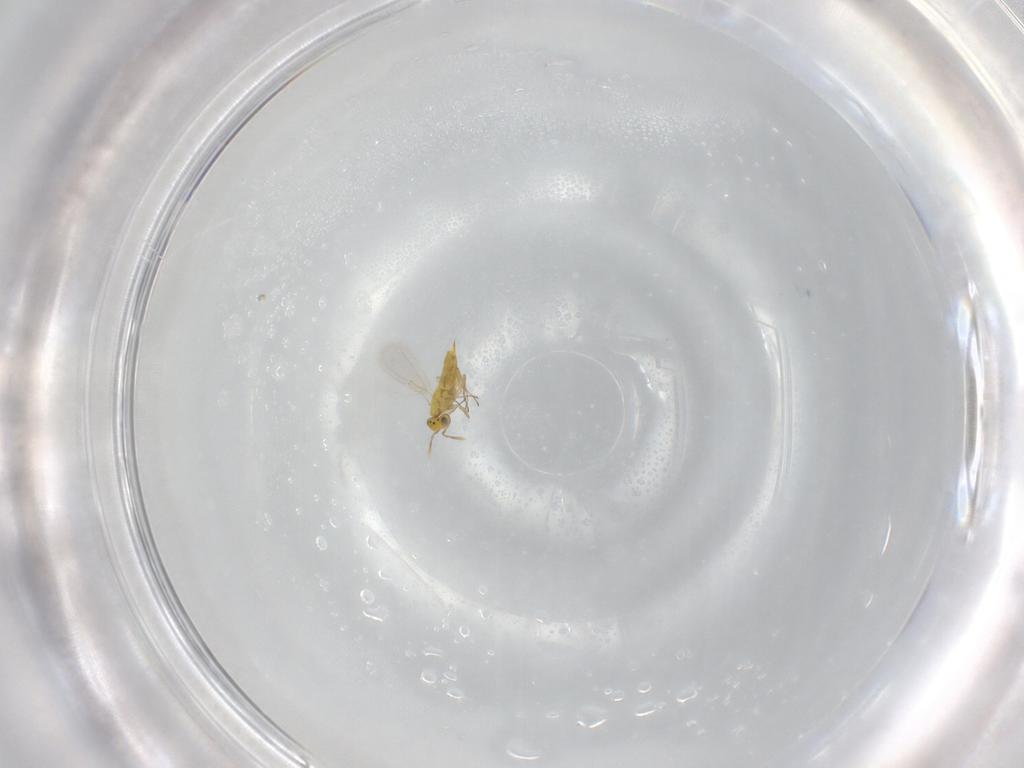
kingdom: Animalia
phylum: Arthropoda
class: Insecta
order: Hymenoptera
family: Aphelinidae
